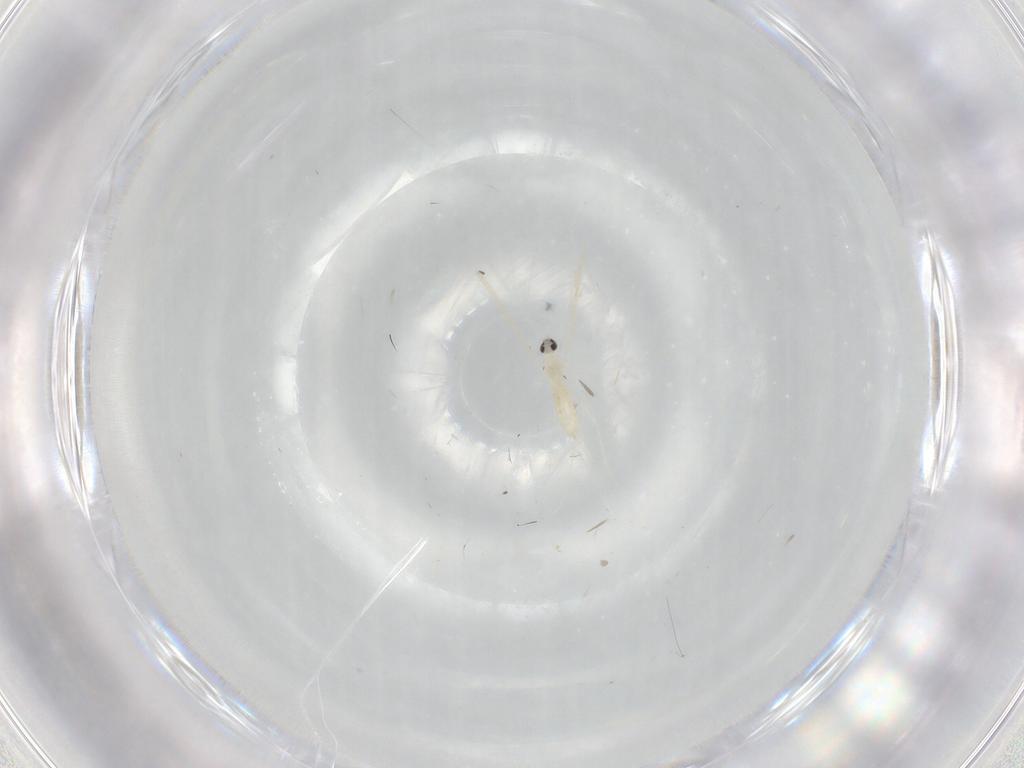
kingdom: Animalia
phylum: Arthropoda
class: Insecta
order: Diptera
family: Cecidomyiidae
